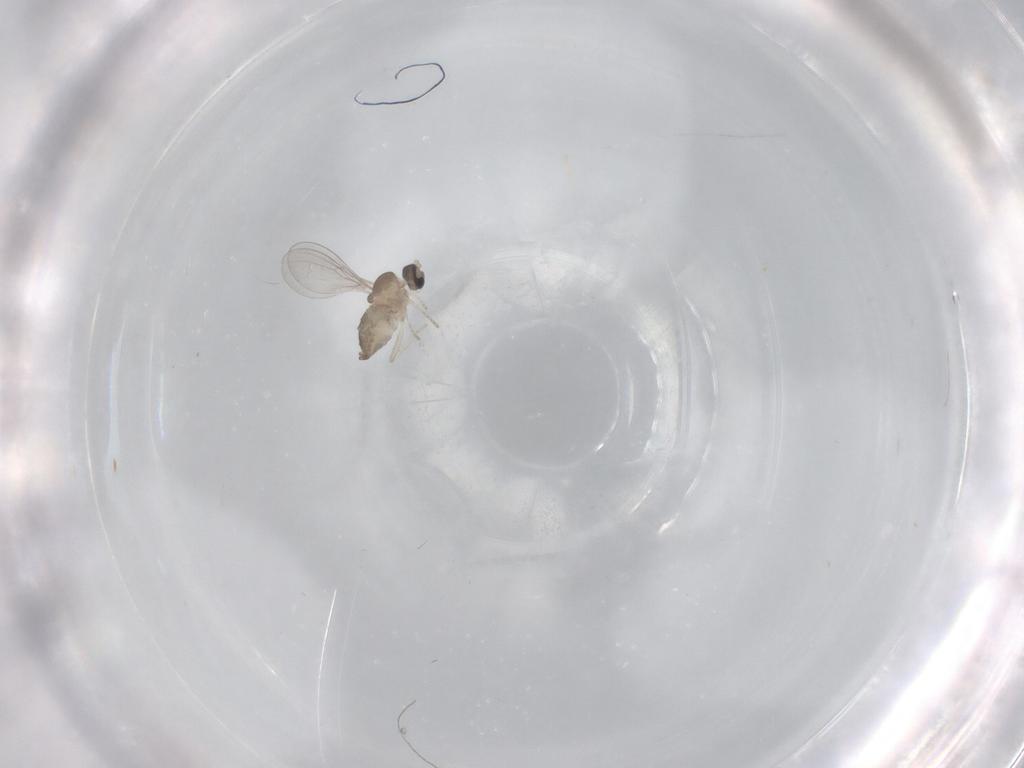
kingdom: Animalia
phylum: Arthropoda
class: Insecta
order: Diptera
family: Cecidomyiidae
